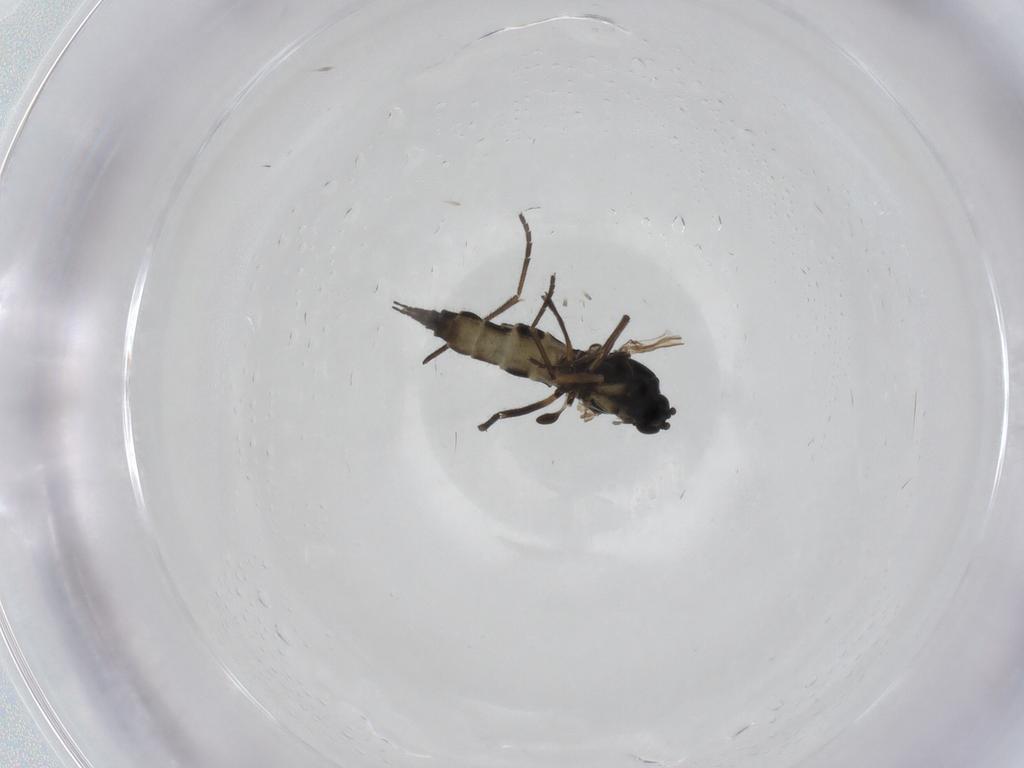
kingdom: Animalia
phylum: Arthropoda
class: Insecta
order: Diptera
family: Sciaridae
